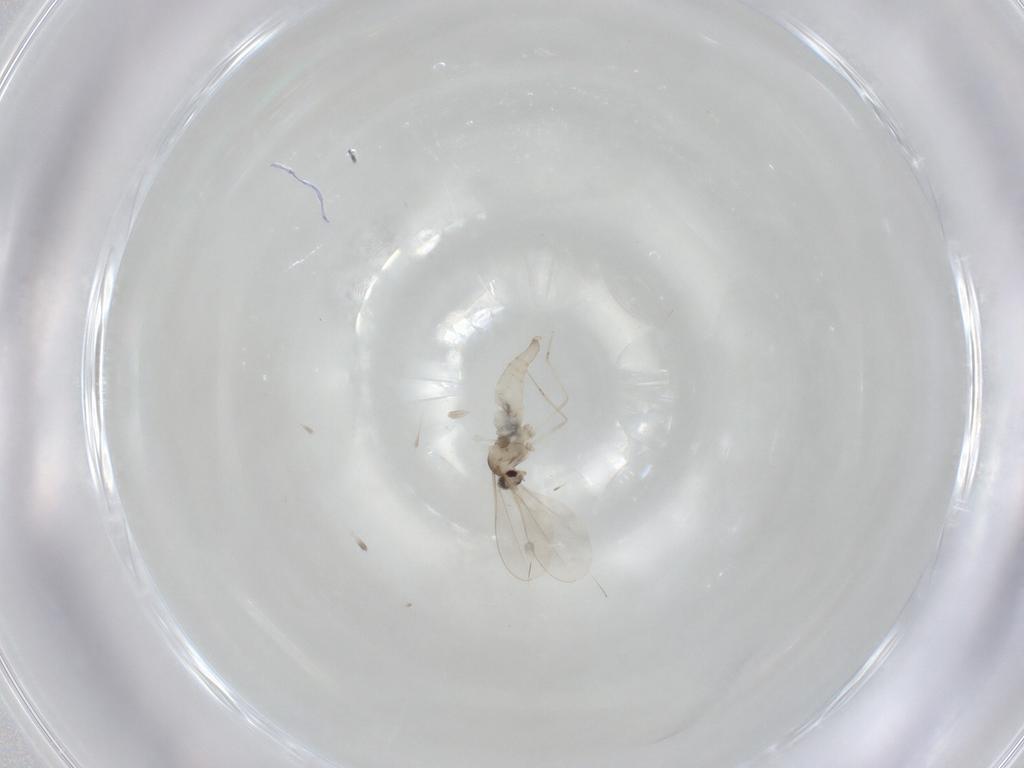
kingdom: Animalia
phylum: Arthropoda
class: Insecta
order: Diptera
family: Cecidomyiidae
